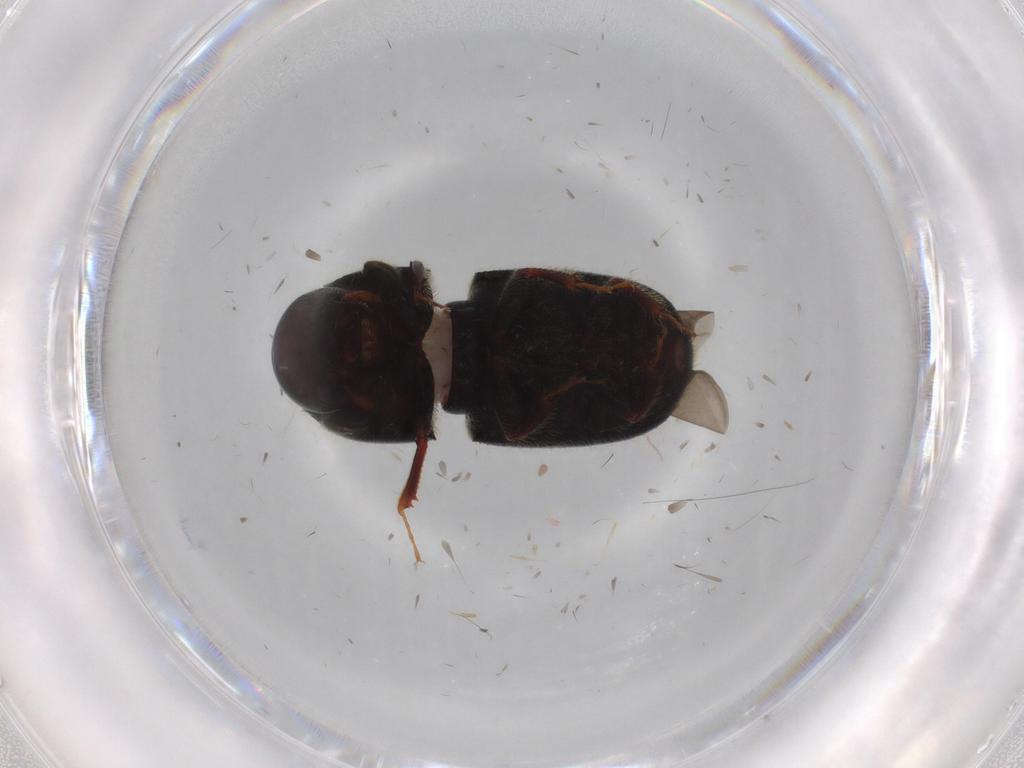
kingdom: Animalia
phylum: Arthropoda
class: Insecta
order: Coleoptera
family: Curculionidae
